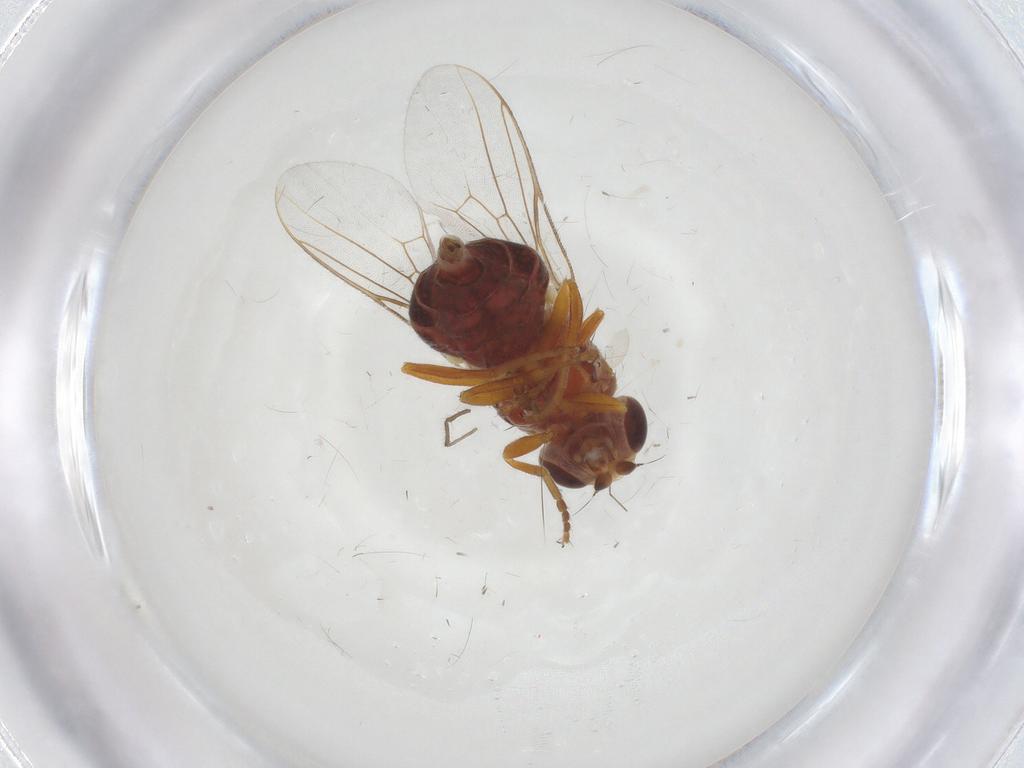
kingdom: Animalia
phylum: Arthropoda
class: Insecta
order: Diptera
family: Chloropidae
